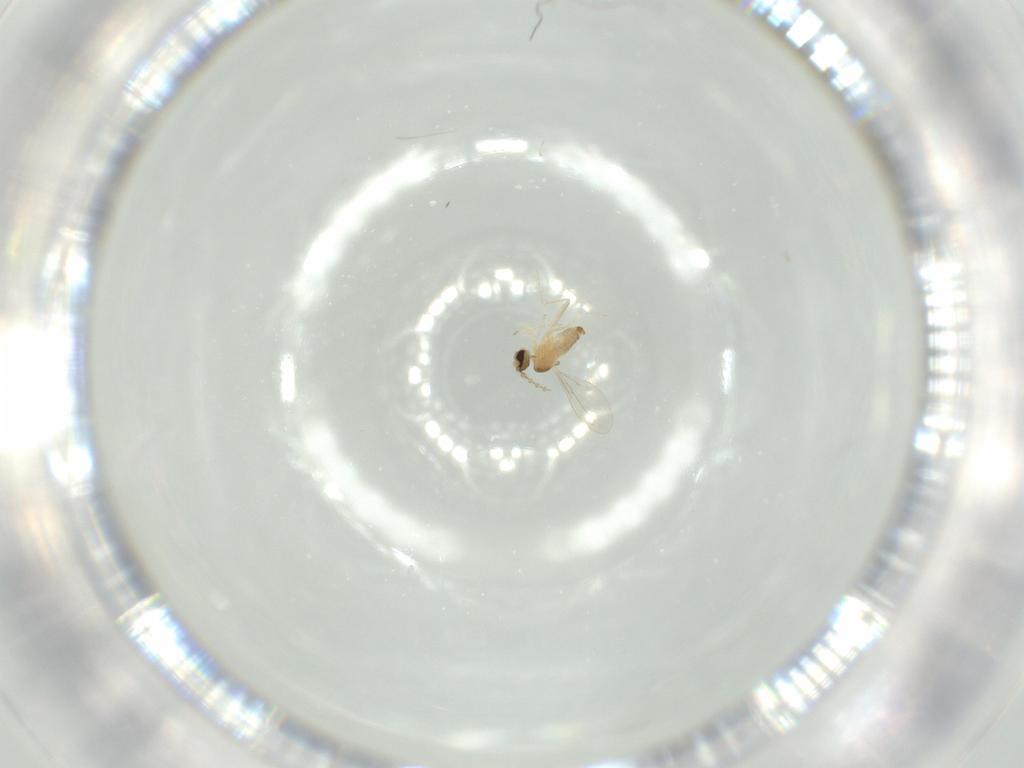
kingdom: Animalia
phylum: Arthropoda
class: Insecta
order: Diptera
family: Cecidomyiidae
